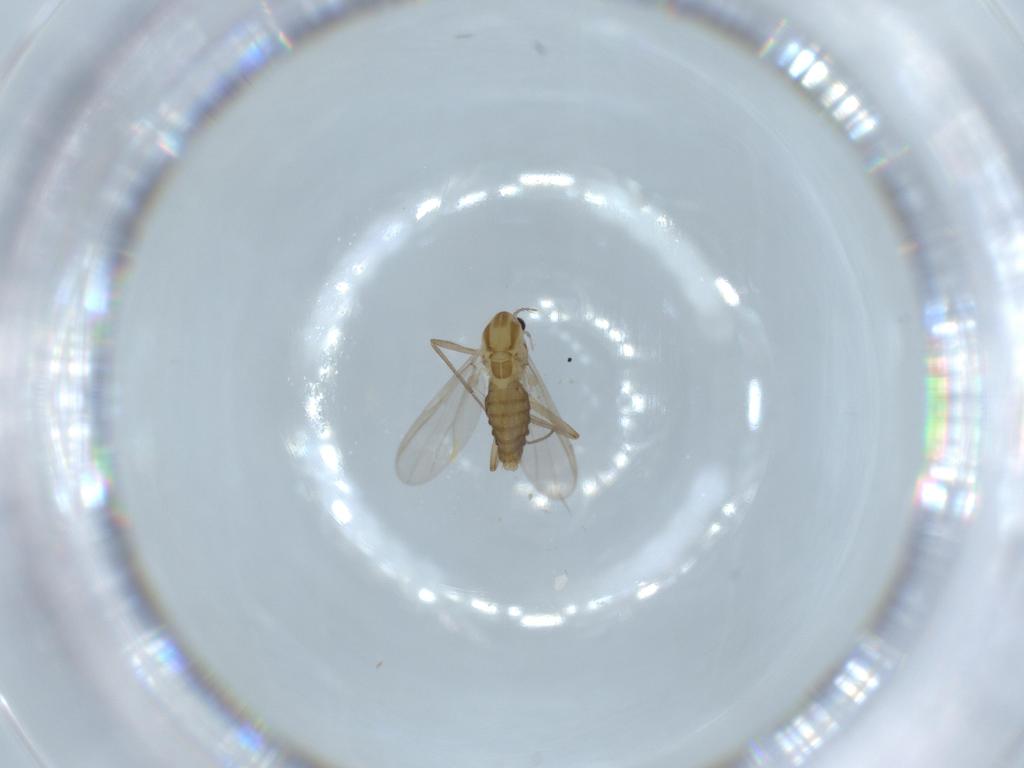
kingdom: Animalia
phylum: Arthropoda
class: Insecta
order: Diptera
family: Chironomidae
